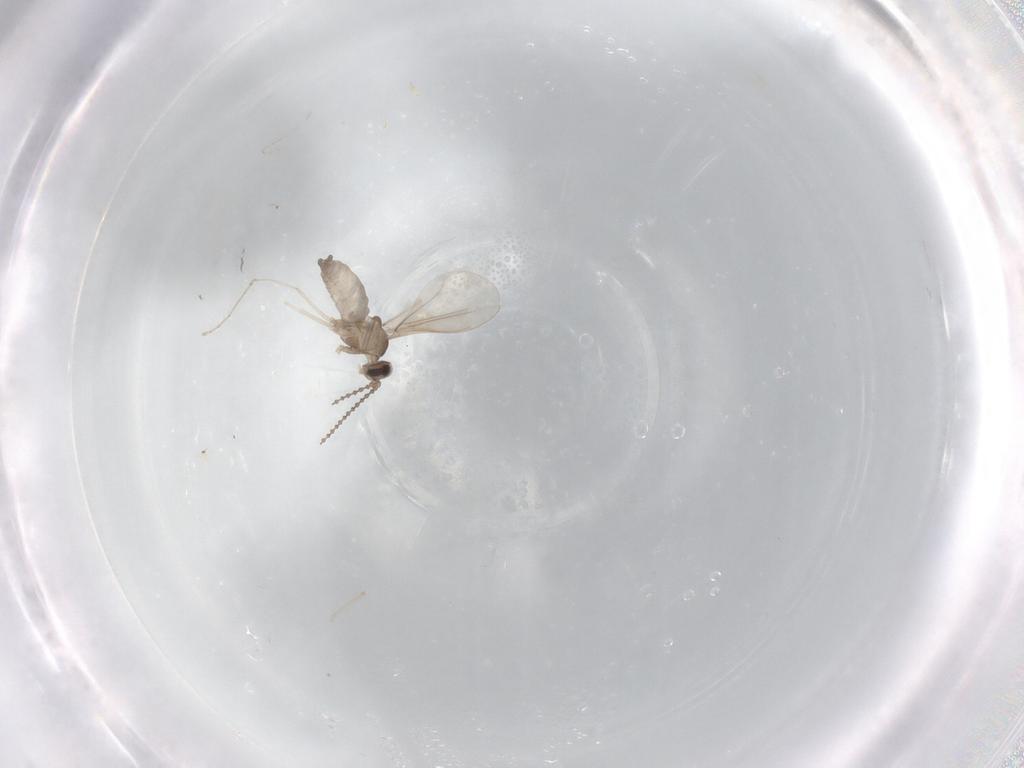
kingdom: Animalia
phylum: Arthropoda
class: Insecta
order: Diptera
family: Cecidomyiidae
